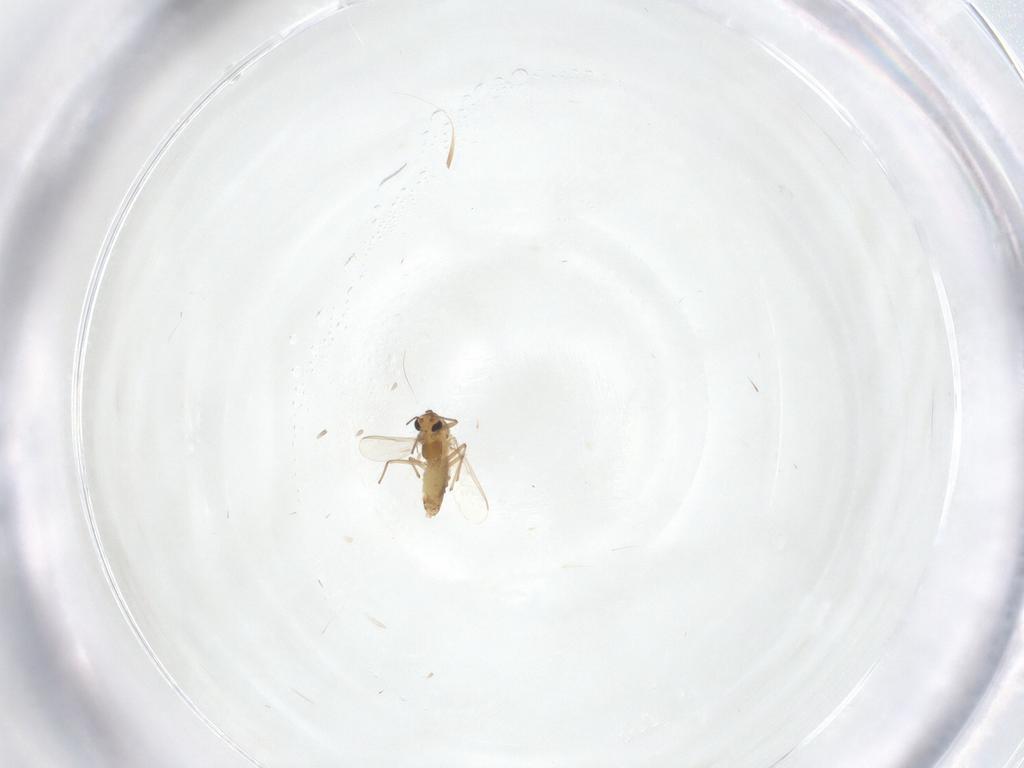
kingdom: Animalia
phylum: Arthropoda
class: Insecta
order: Diptera
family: Chironomidae
